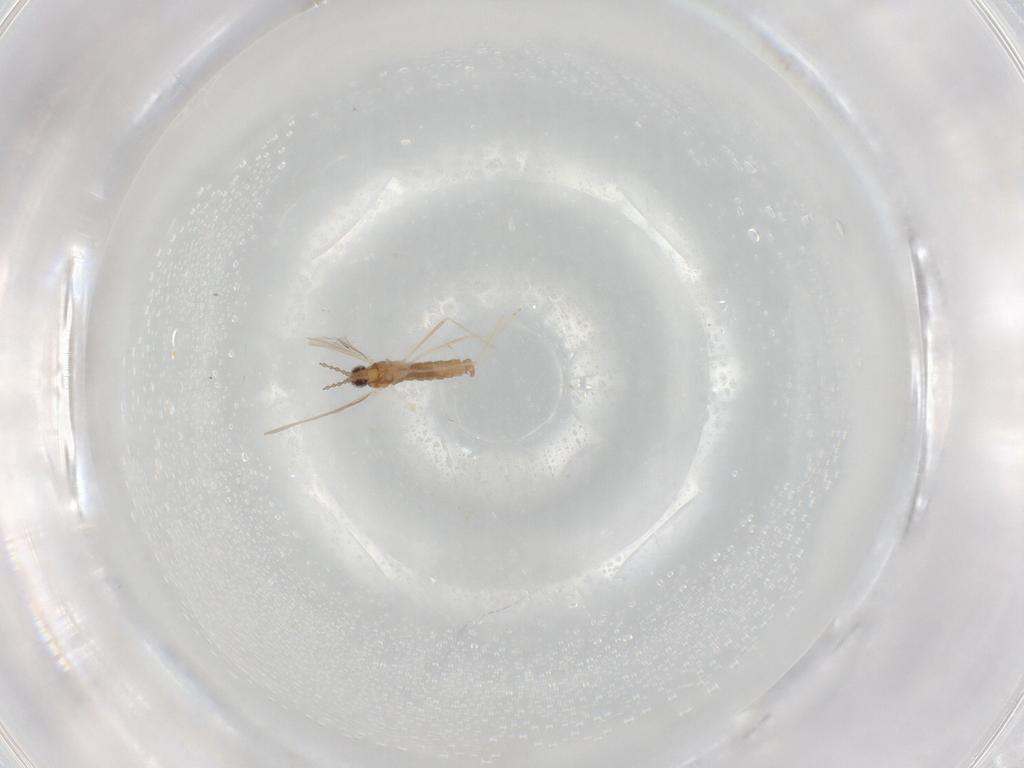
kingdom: Animalia
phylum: Arthropoda
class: Insecta
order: Diptera
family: Cecidomyiidae
